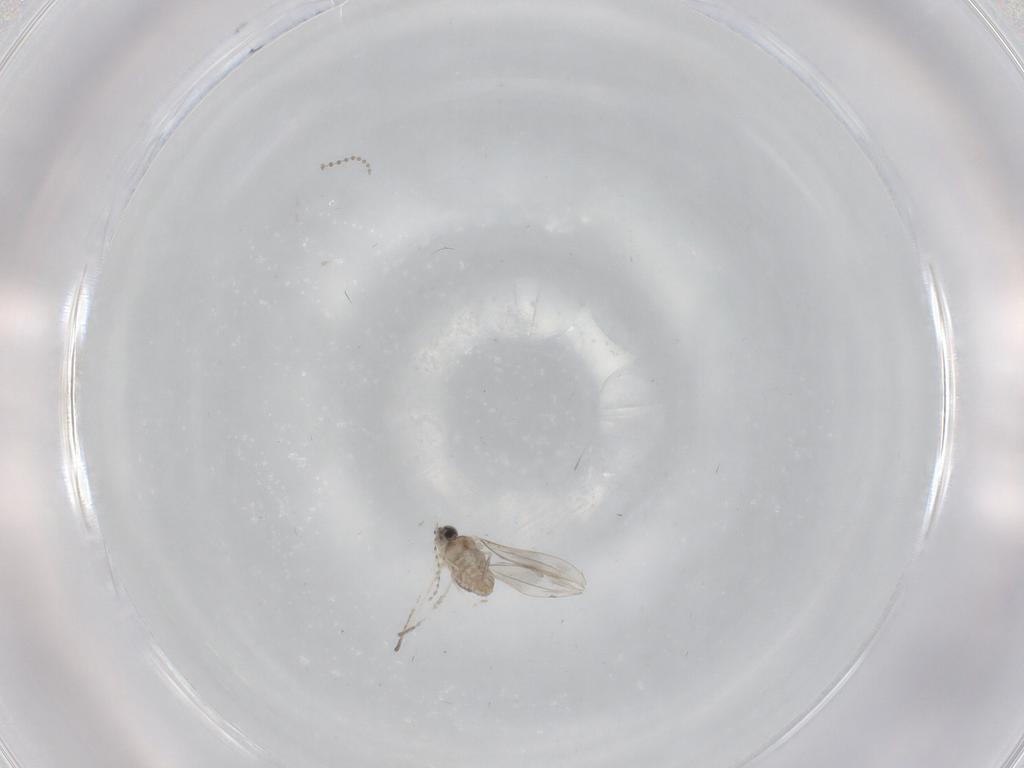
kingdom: Animalia
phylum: Arthropoda
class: Insecta
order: Diptera
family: Cecidomyiidae
